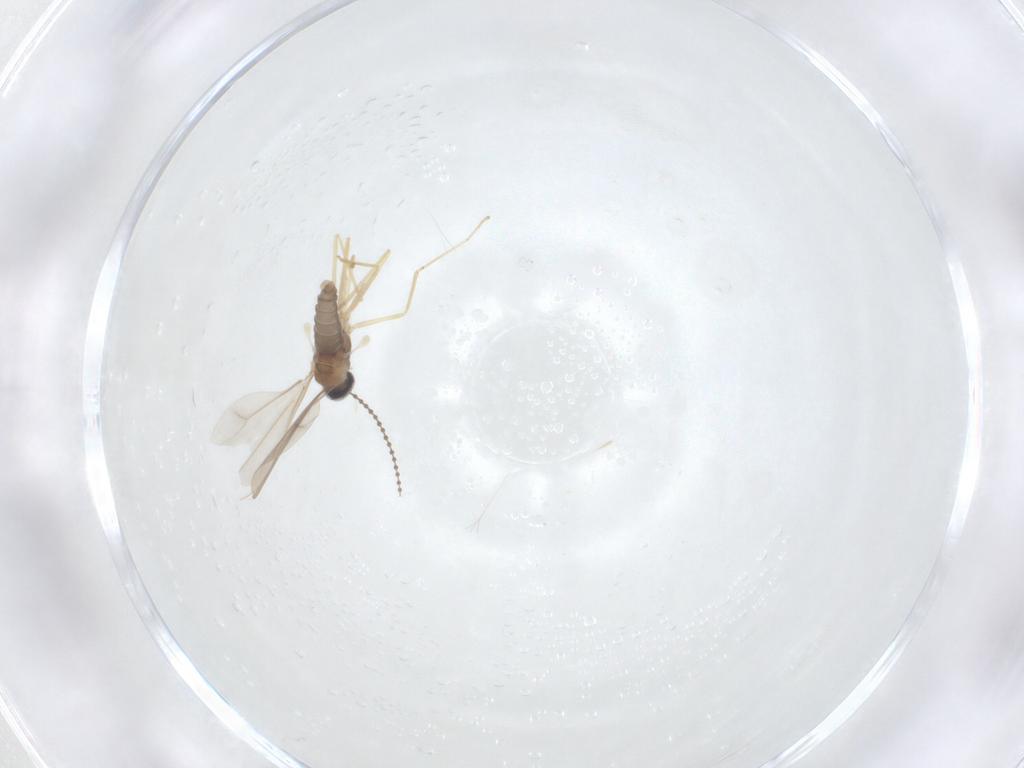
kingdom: Animalia
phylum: Arthropoda
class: Insecta
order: Diptera
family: Cecidomyiidae
